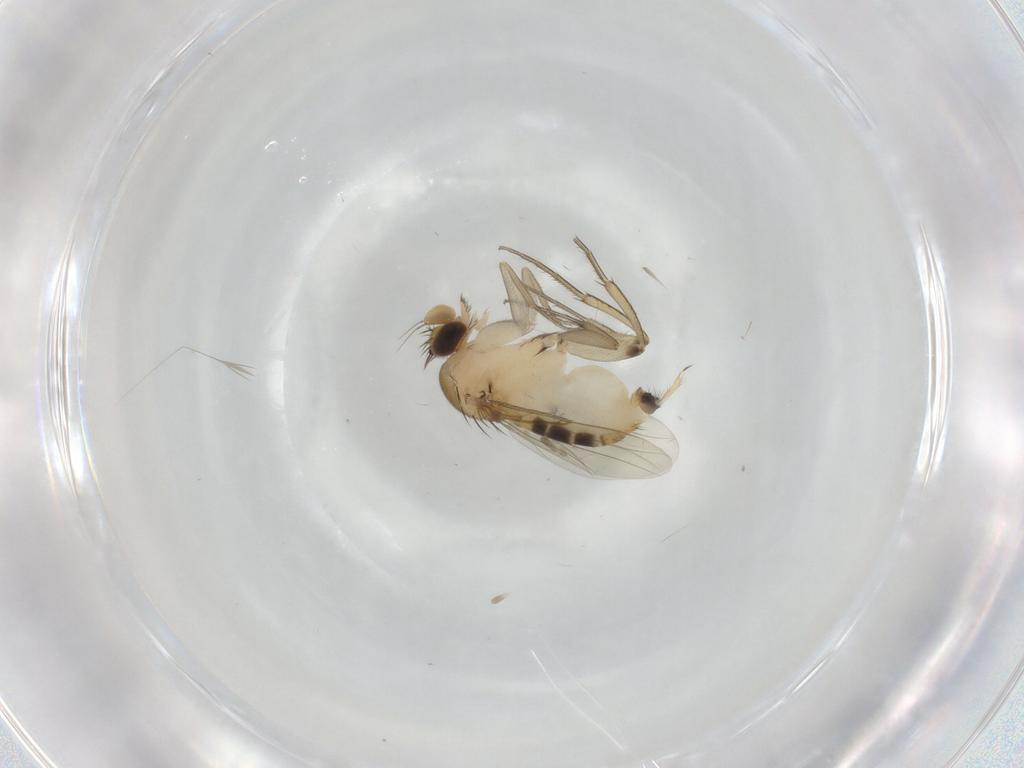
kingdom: Animalia
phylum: Arthropoda
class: Insecta
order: Diptera
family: Phoridae
